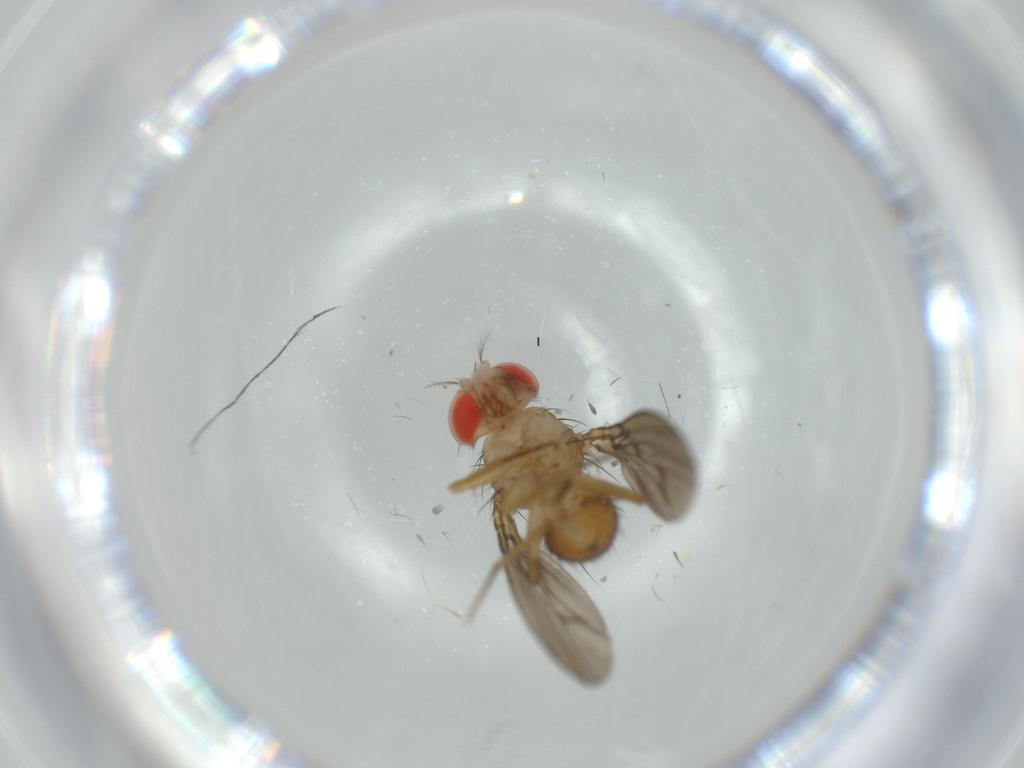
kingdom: Animalia
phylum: Arthropoda
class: Insecta
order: Diptera
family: Drosophilidae
